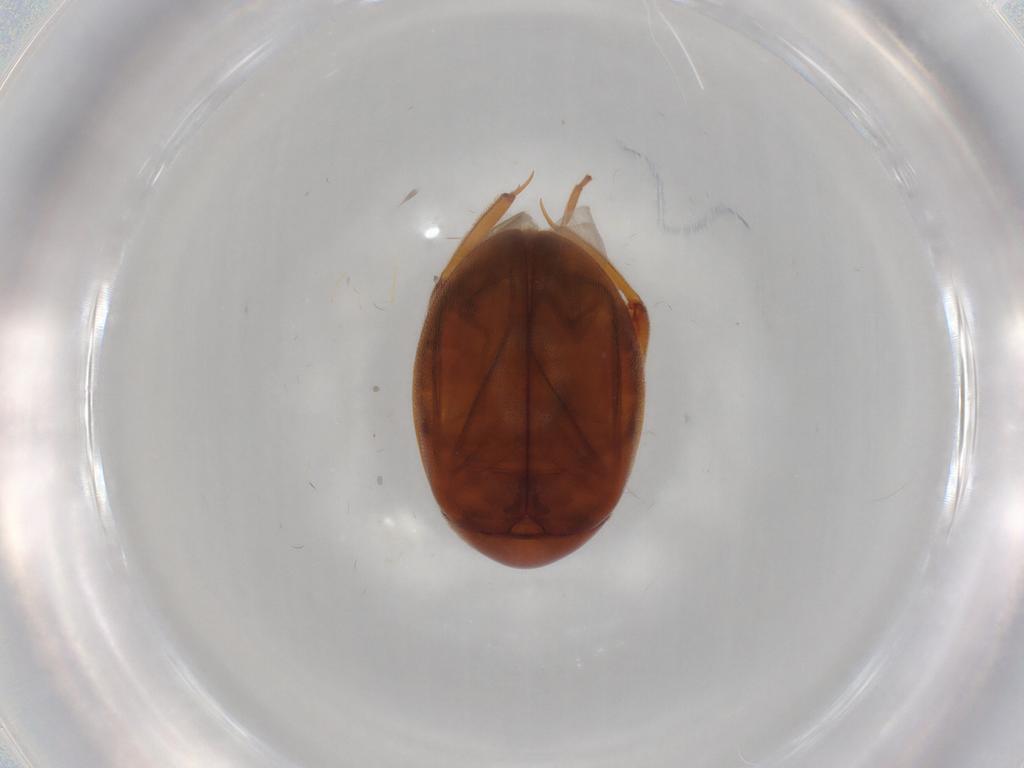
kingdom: Animalia
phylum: Arthropoda
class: Insecta
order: Coleoptera
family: Scirtidae
